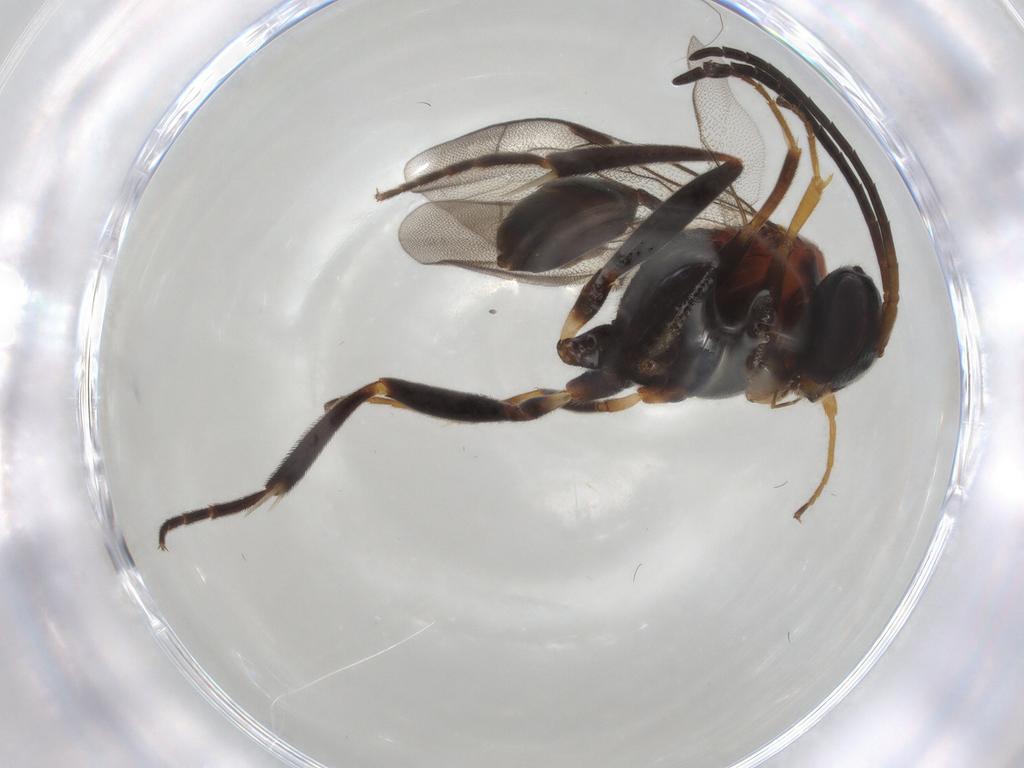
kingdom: Animalia
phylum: Arthropoda
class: Insecta
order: Hymenoptera
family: Evaniidae
